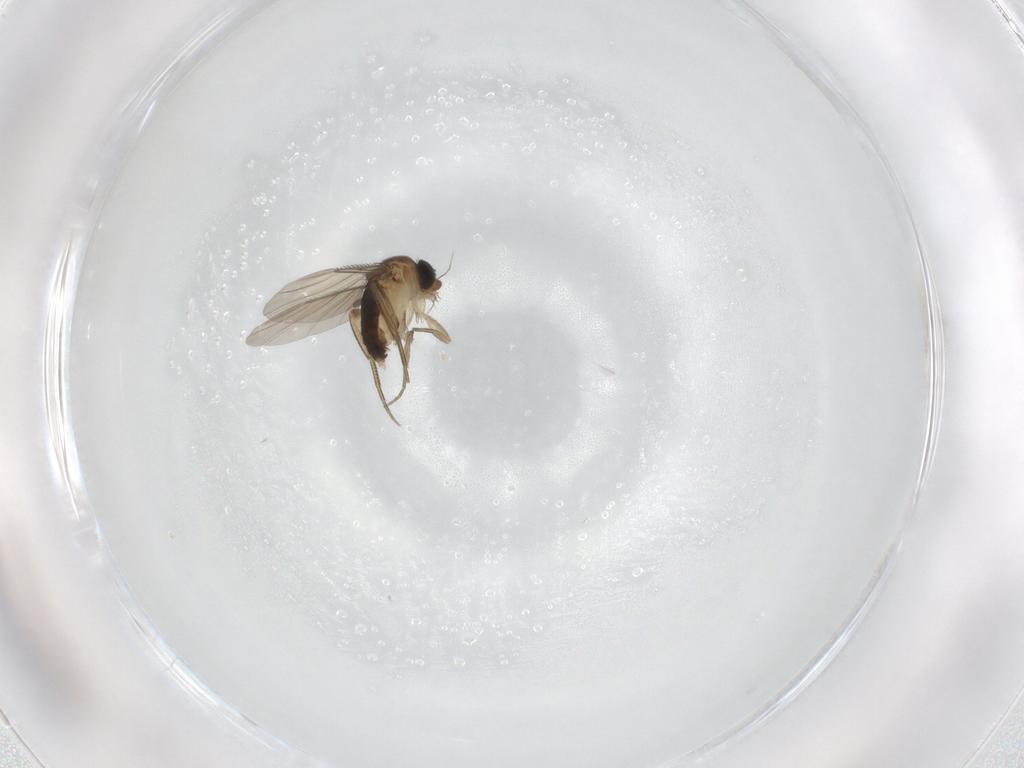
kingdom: Animalia
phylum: Arthropoda
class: Insecta
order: Diptera
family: Phoridae
